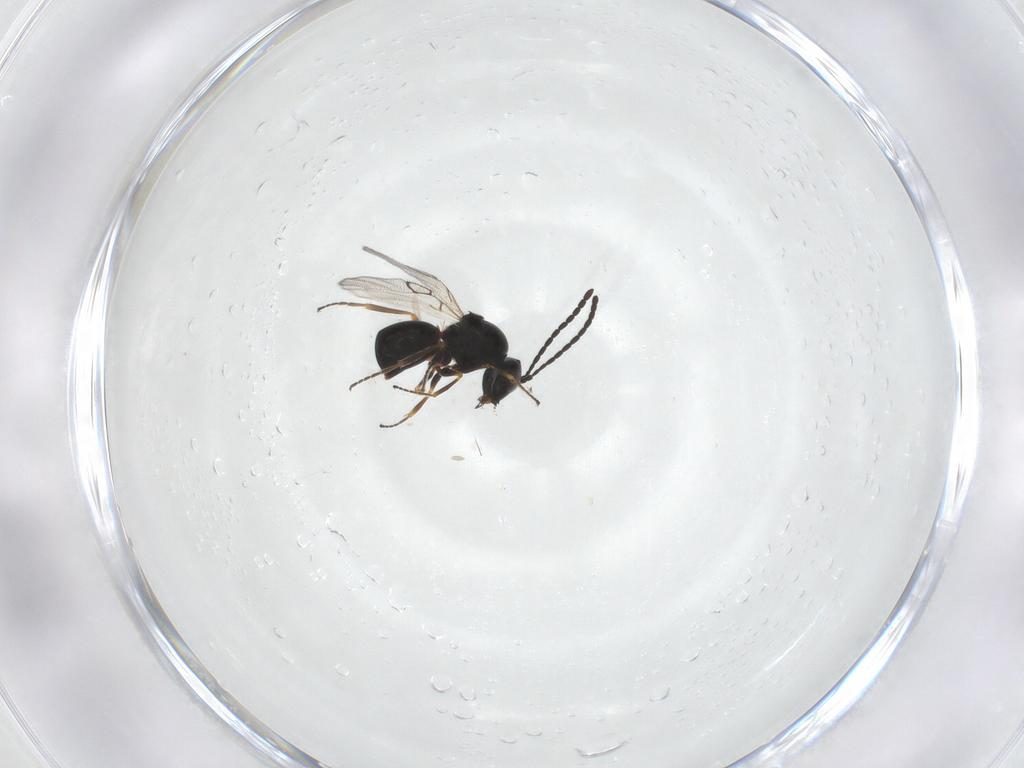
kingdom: Animalia
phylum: Arthropoda
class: Insecta
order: Hymenoptera
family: Figitidae
